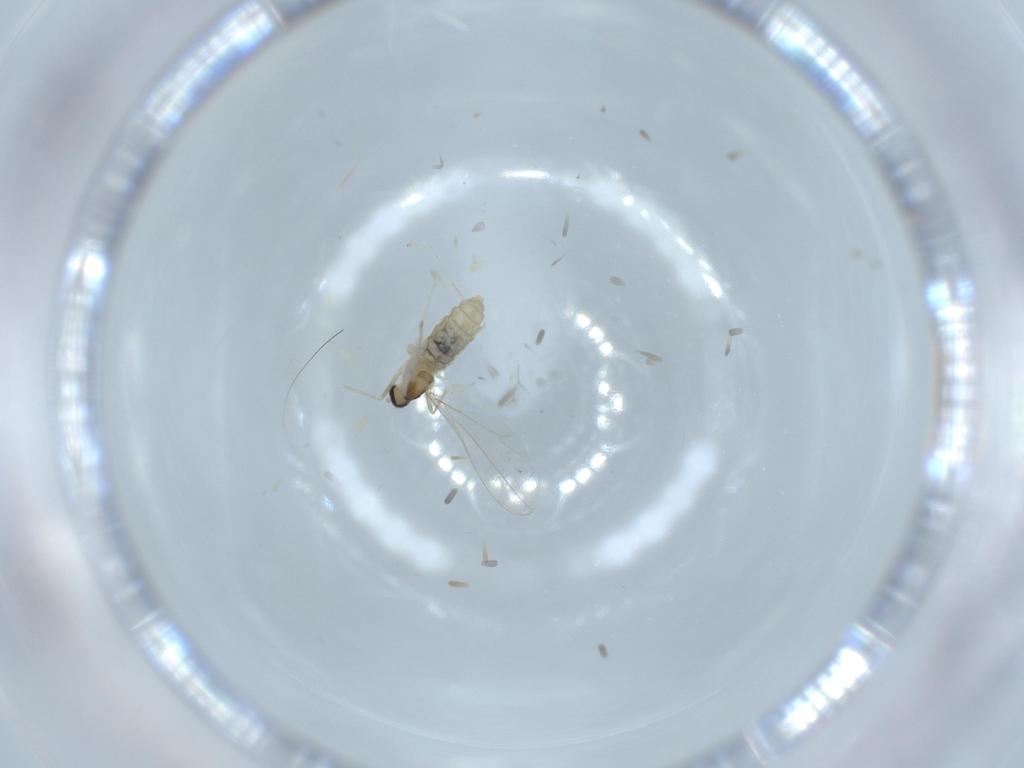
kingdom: Animalia
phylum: Arthropoda
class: Insecta
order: Diptera
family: Cecidomyiidae
